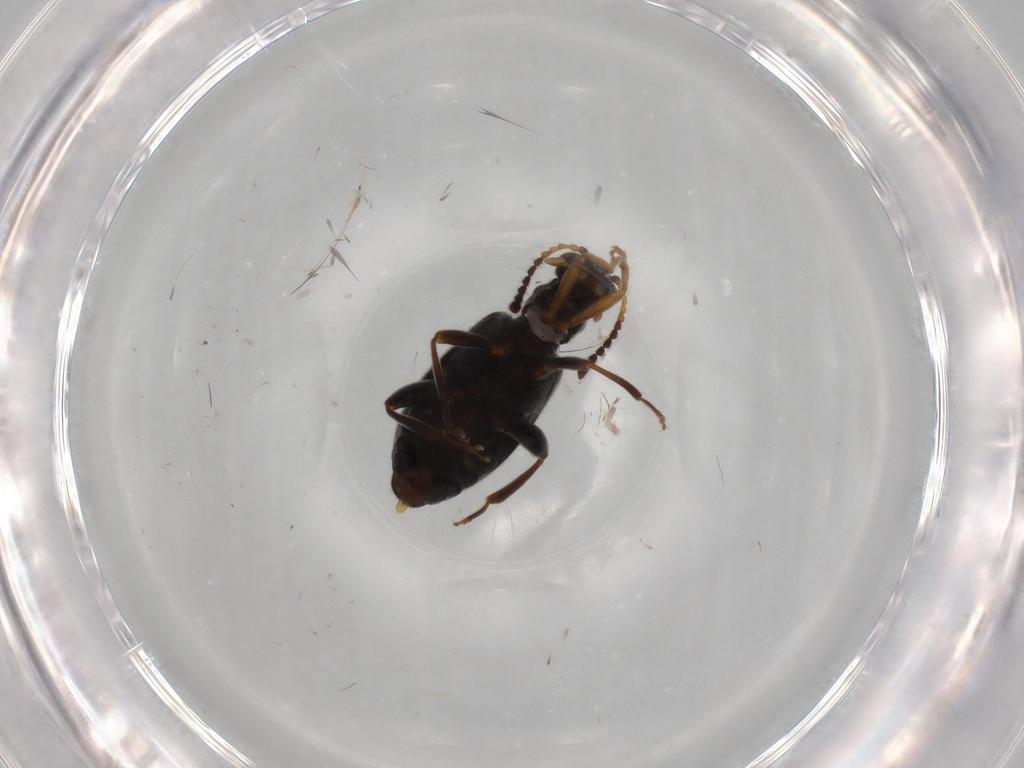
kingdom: Animalia
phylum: Arthropoda
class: Insecta
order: Coleoptera
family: Aderidae
